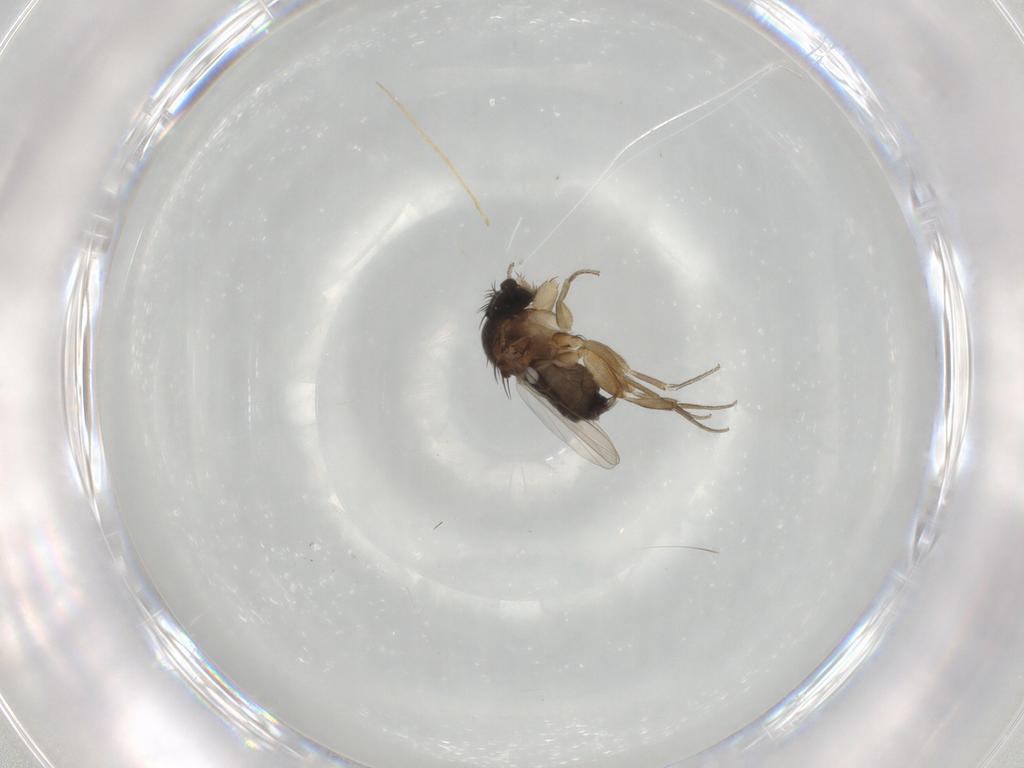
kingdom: Animalia
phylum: Arthropoda
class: Insecta
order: Diptera
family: Phoridae
